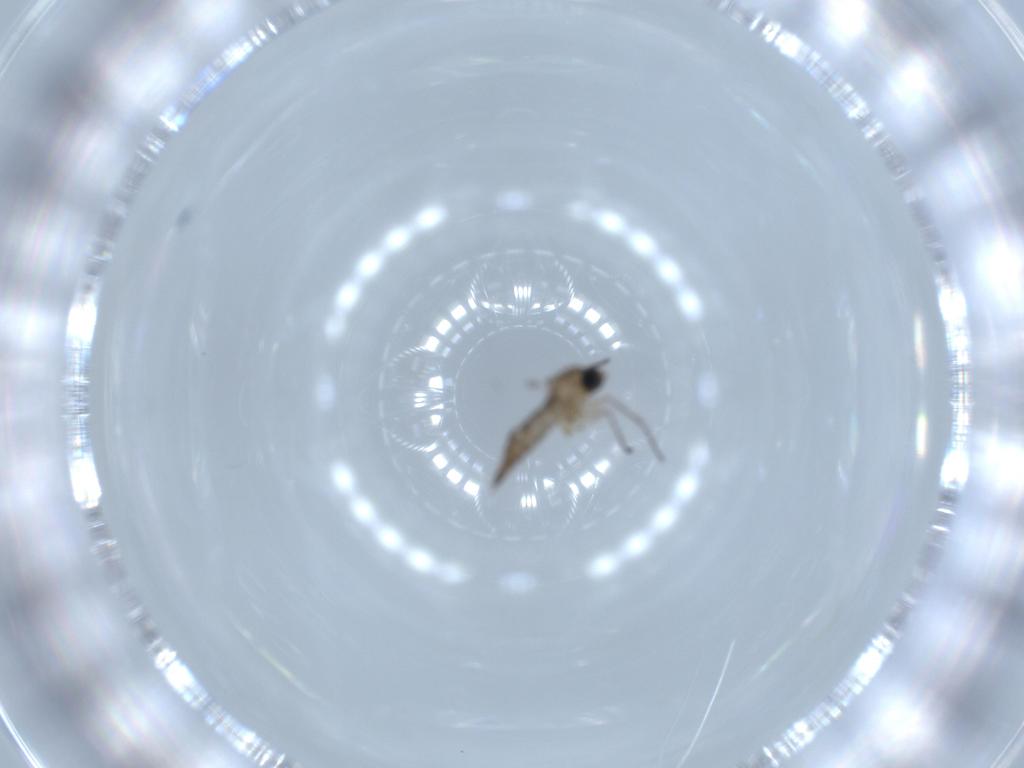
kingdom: Animalia
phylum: Arthropoda
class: Insecta
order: Diptera
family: Sciaridae
